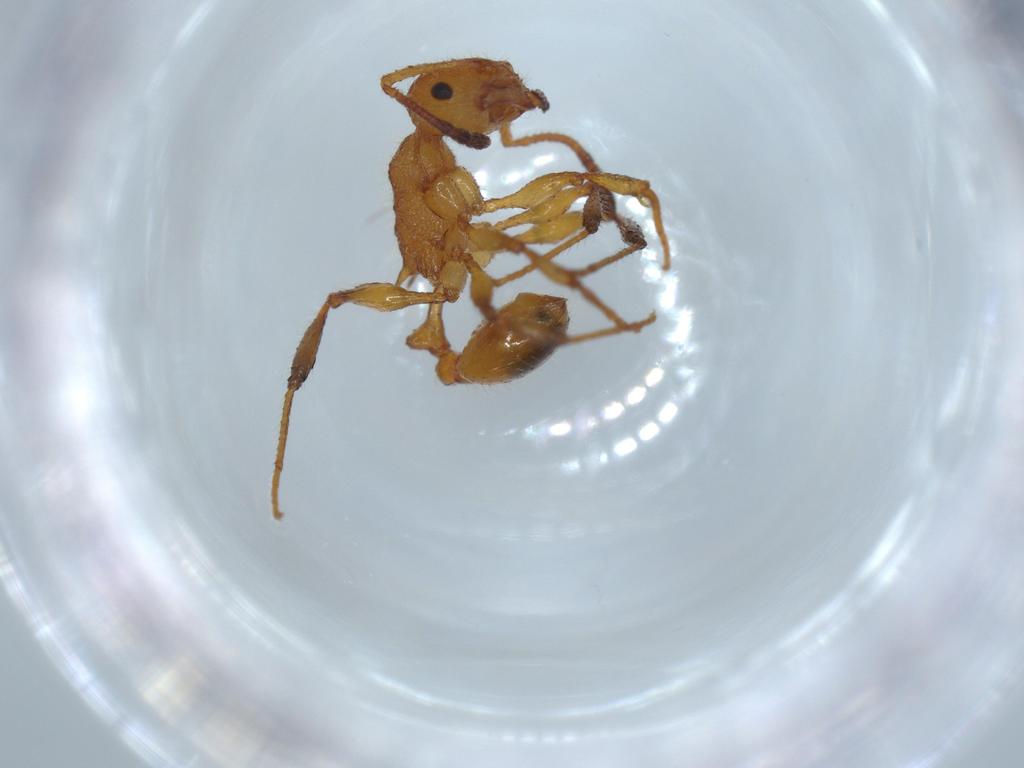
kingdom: Animalia
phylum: Arthropoda
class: Insecta
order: Hymenoptera
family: Formicidae
